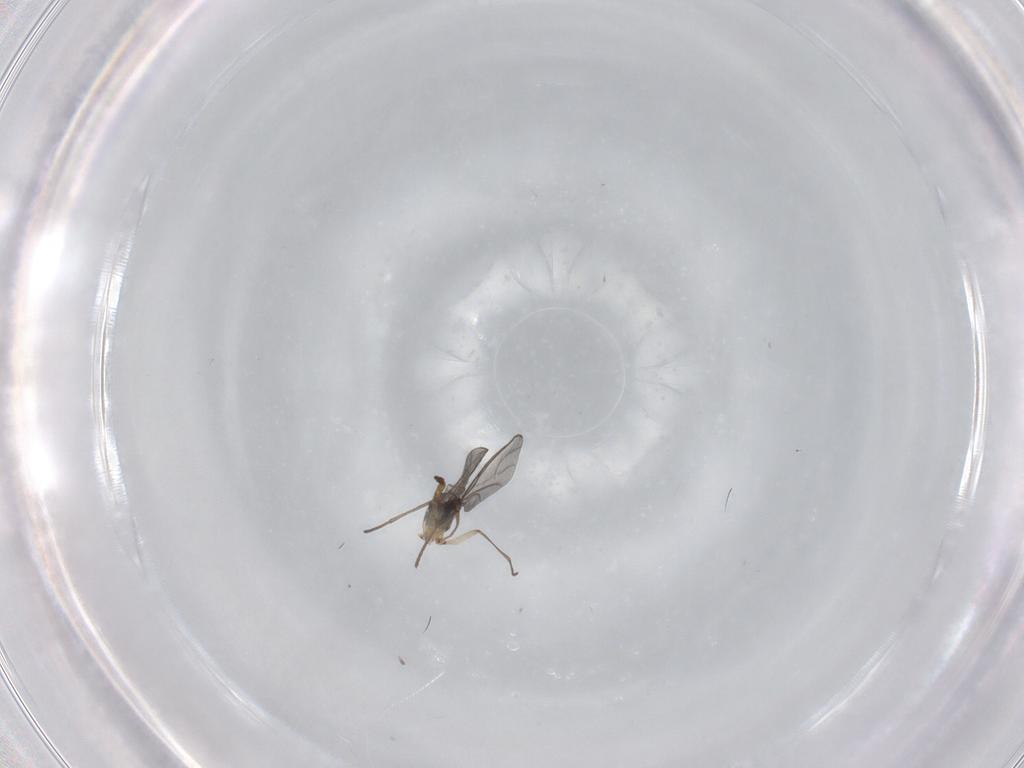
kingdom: Animalia
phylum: Arthropoda
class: Insecta
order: Diptera
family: Sciaridae
